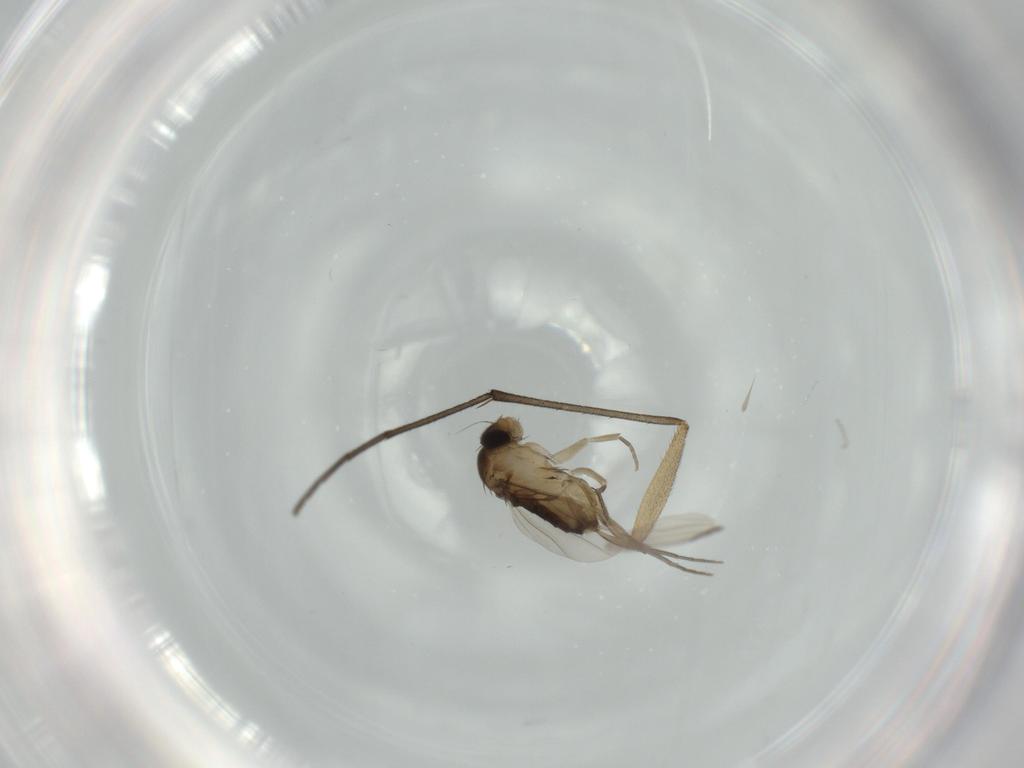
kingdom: Animalia
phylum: Arthropoda
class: Insecta
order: Diptera
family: Phoridae
